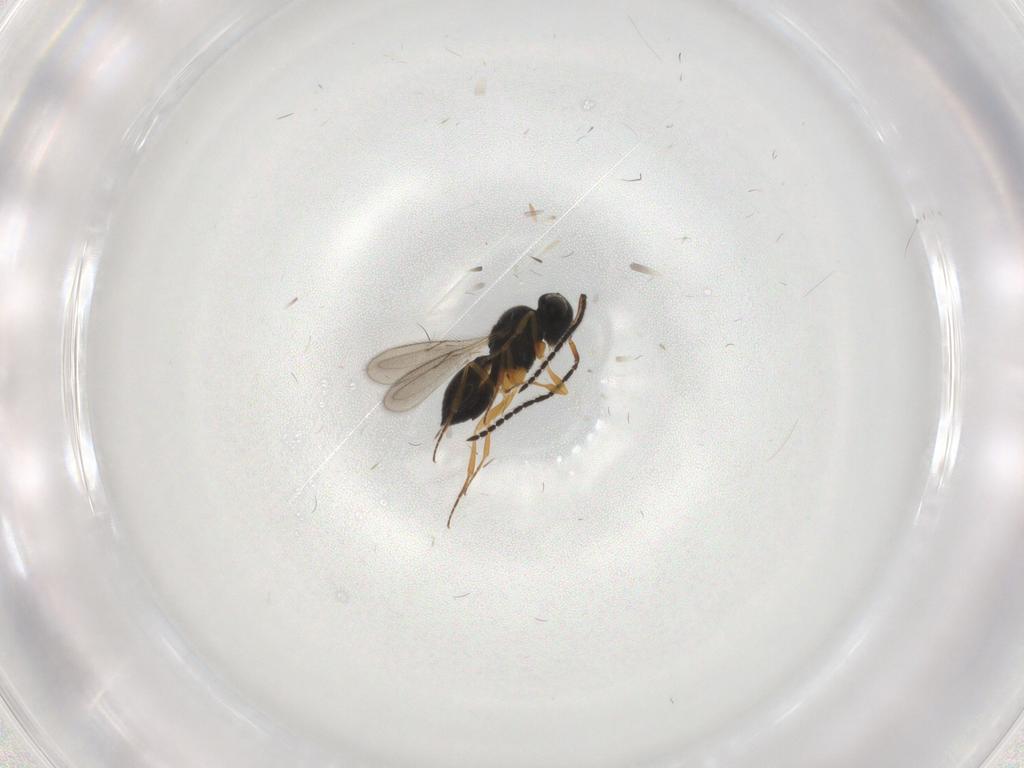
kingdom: Animalia
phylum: Arthropoda
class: Insecta
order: Hymenoptera
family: Scelionidae
